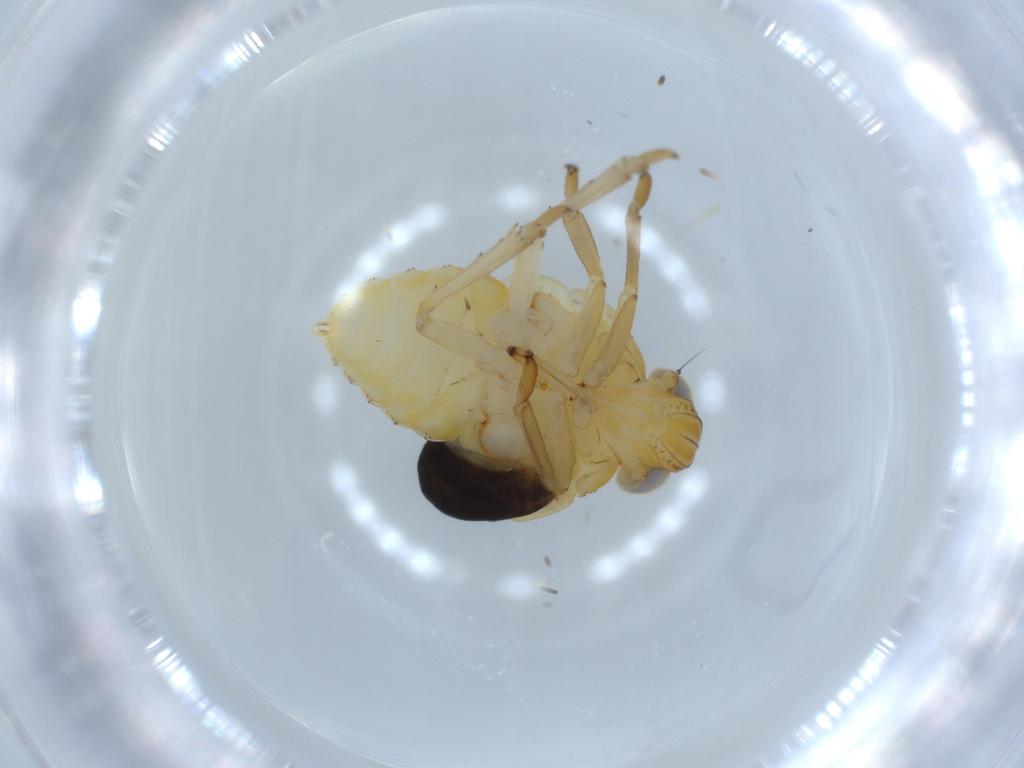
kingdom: Animalia
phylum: Arthropoda
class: Insecta
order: Hemiptera
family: Issidae
